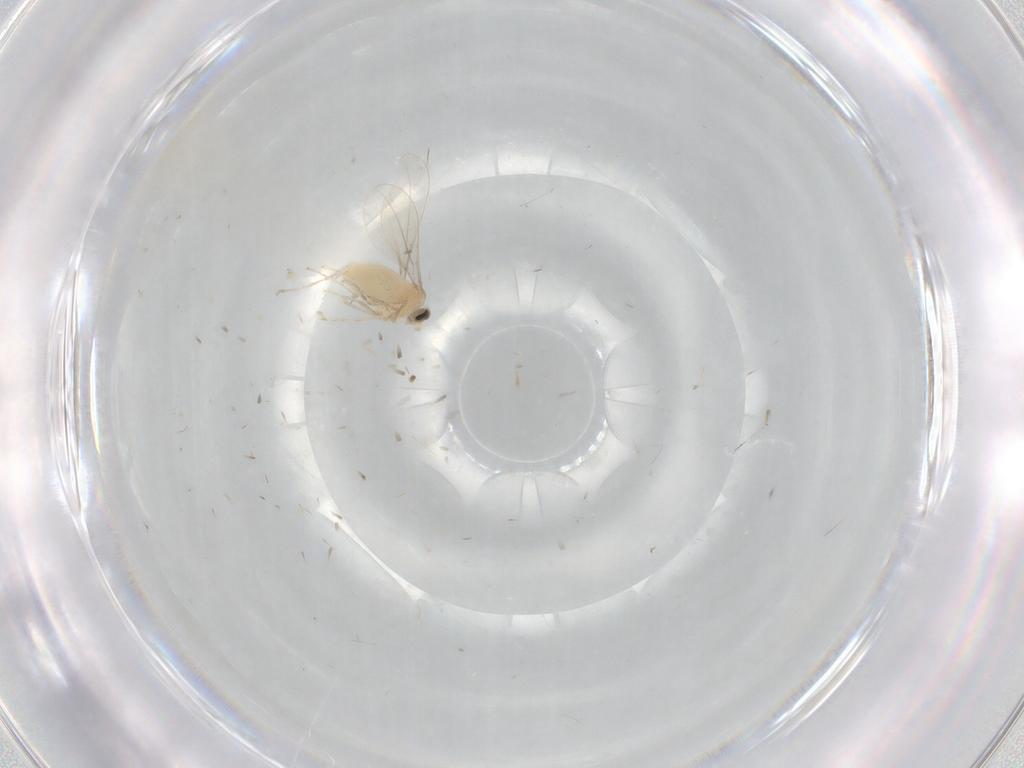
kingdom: Animalia
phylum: Arthropoda
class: Insecta
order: Diptera
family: Cecidomyiidae
